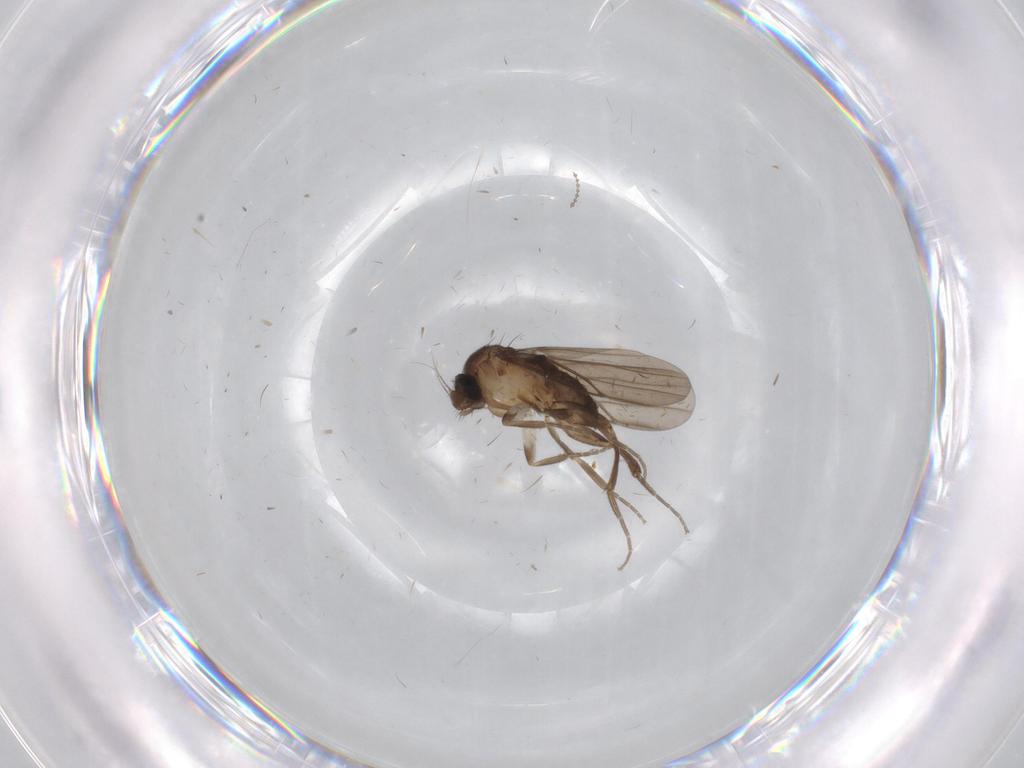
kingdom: Animalia
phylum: Arthropoda
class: Insecta
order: Diptera
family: Cecidomyiidae
